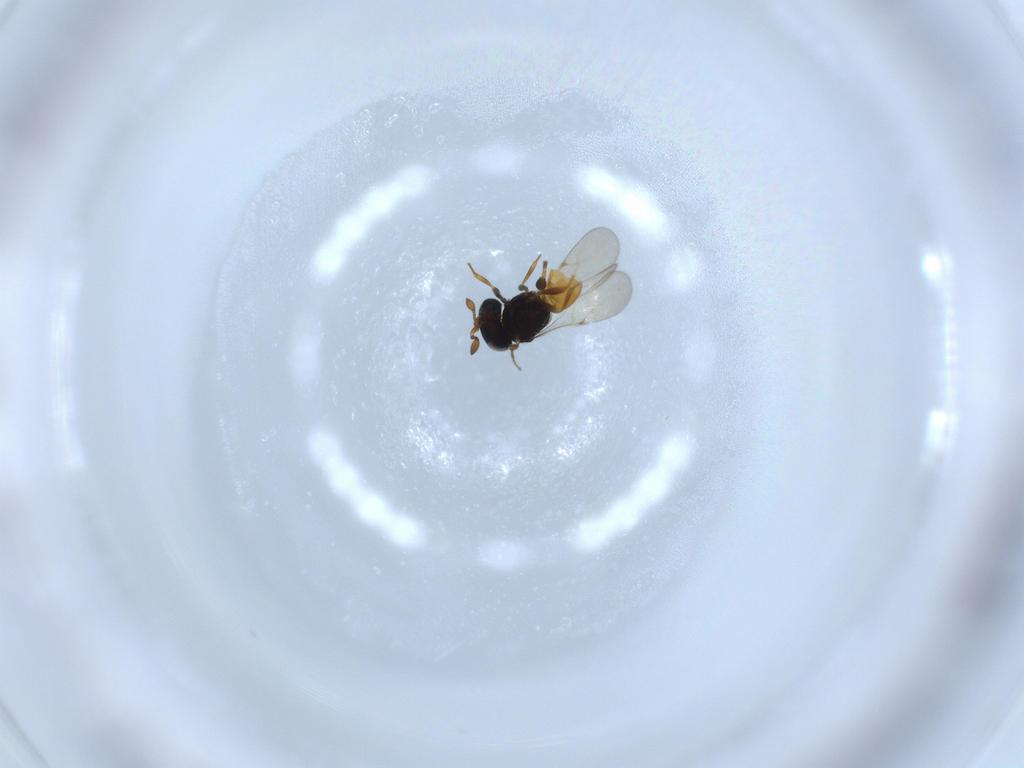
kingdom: Animalia
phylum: Arthropoda
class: Insecta
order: Hymenoptera
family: Scelionidae
